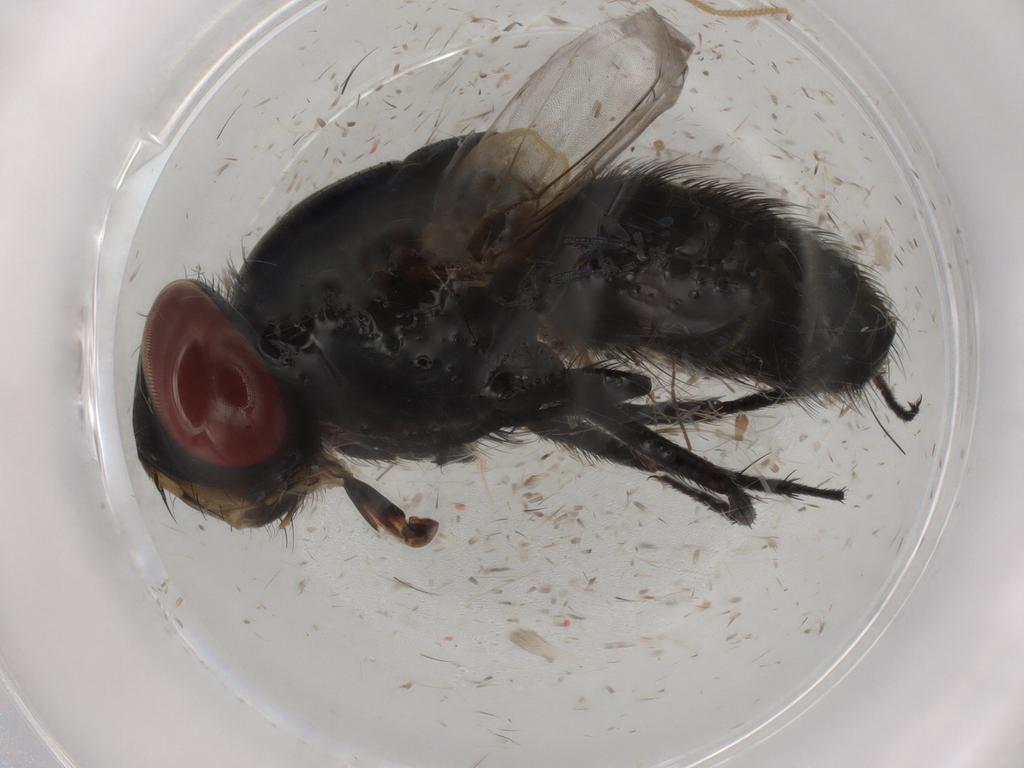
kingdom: Animalia
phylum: Arthropoda
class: Insecta
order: Diptera
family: Sarcophagidae
